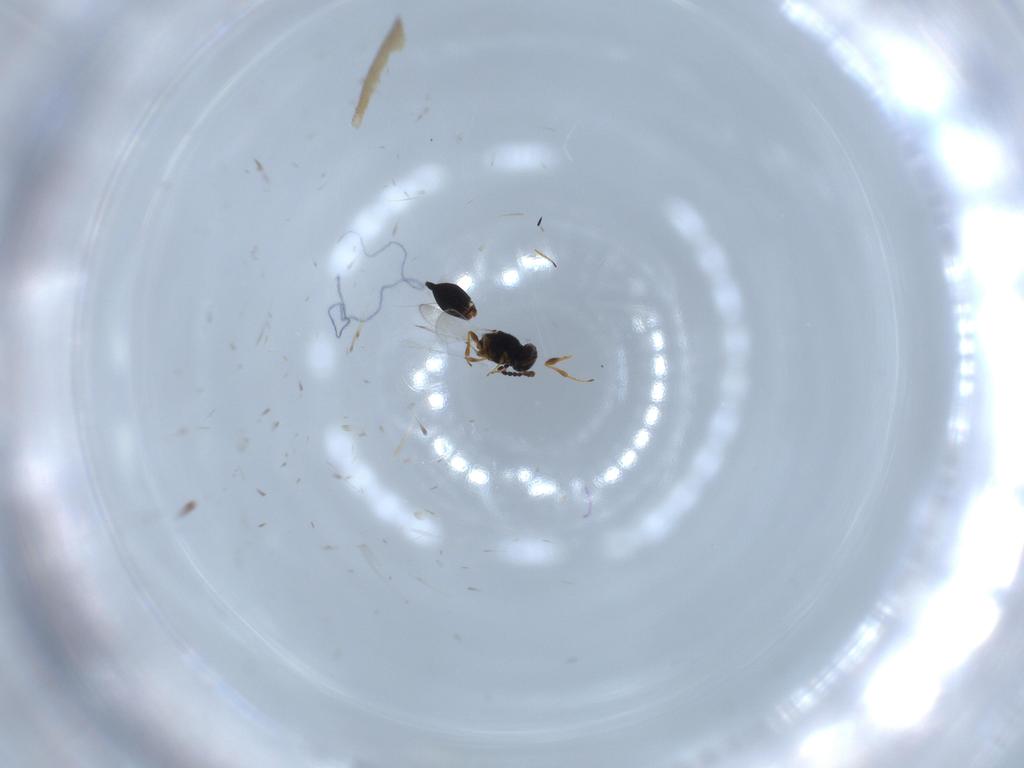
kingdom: Animalia
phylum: Arthropoda
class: Insecta
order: Hymenoptera
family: Platygastridae
